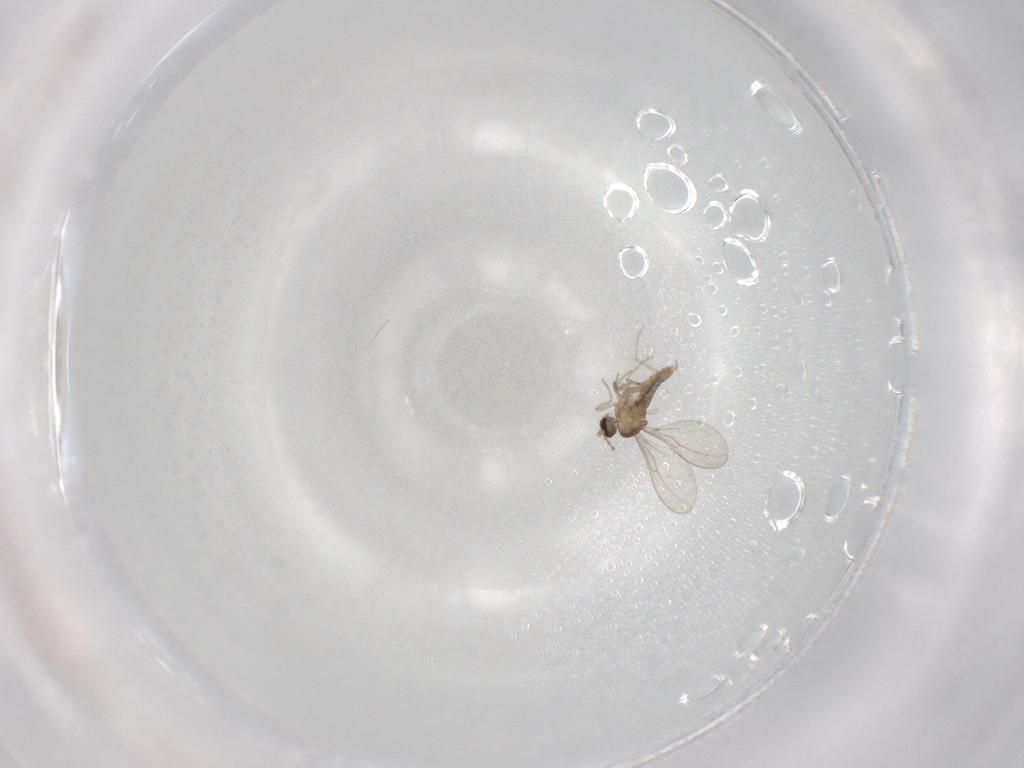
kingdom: Animalia
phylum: Arthropoda
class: Insecta
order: Diptera
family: Cecidomyiidae
